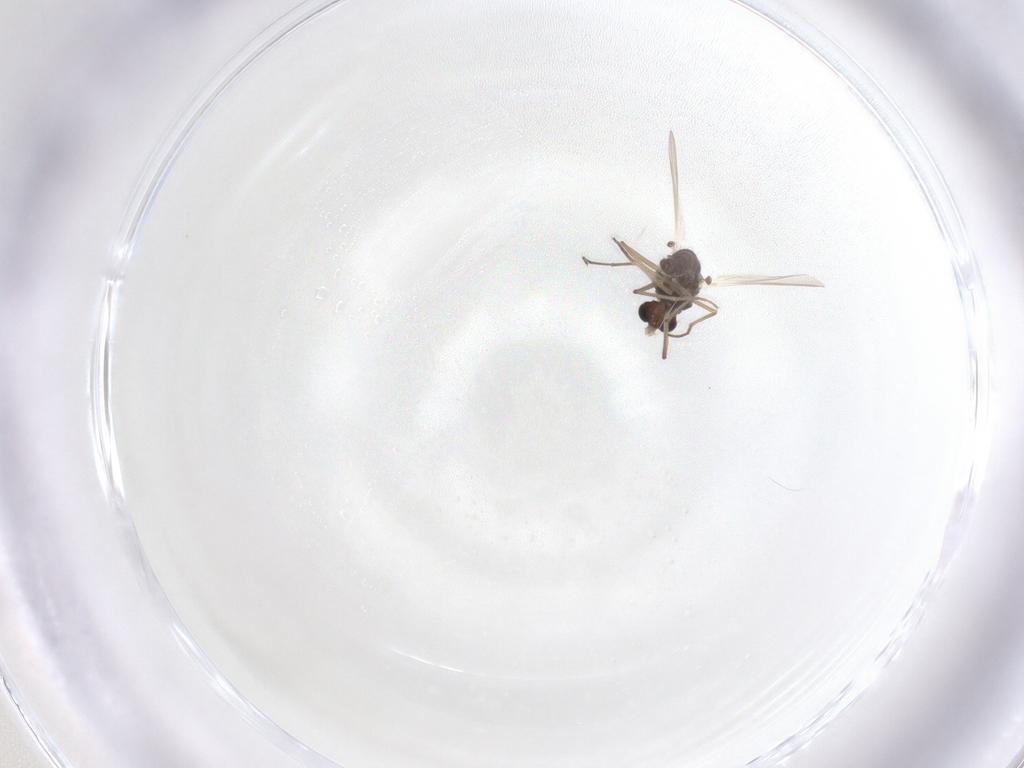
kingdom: Animalia
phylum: Arthropoda
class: Insecta
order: Diptera
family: Chironomidae
